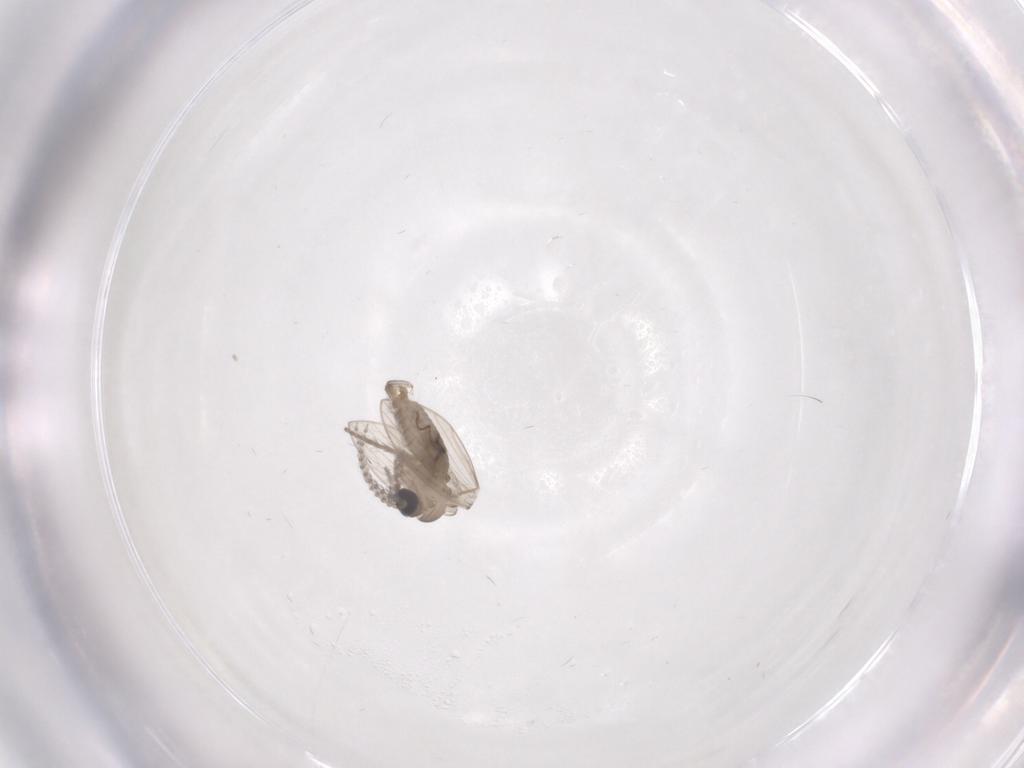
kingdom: Animalia
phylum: Arthropoda
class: Insecta
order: Diptera
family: Psychodidae
